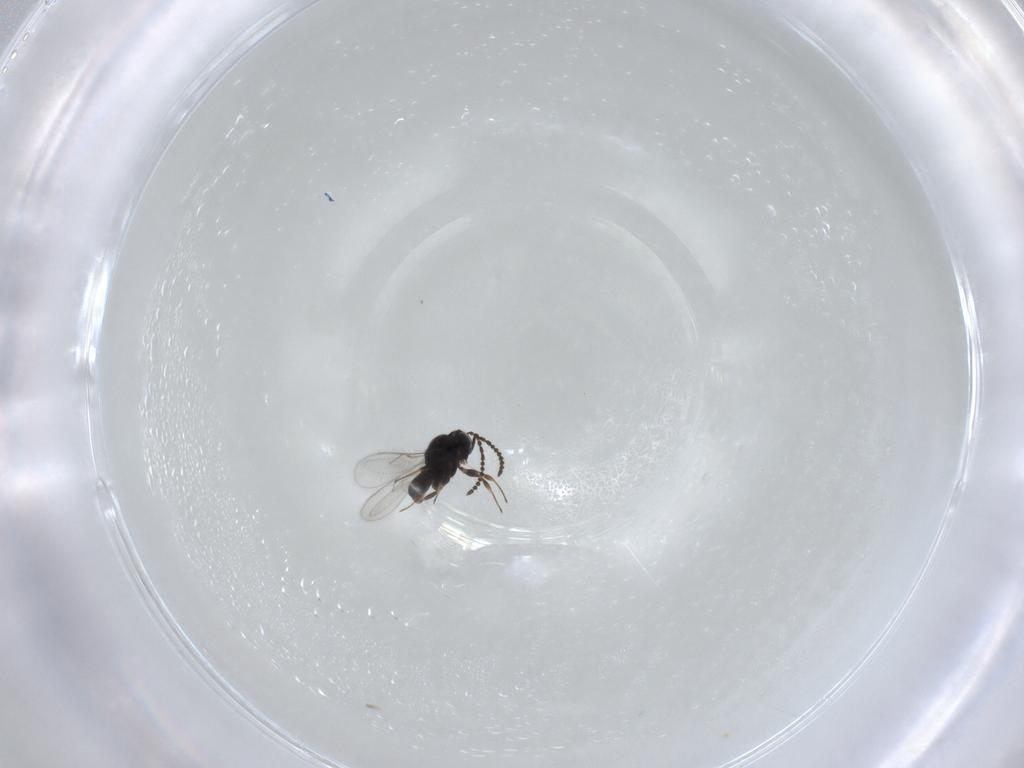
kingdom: Animalia
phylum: Arthropoda
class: Insecta
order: Hymenoptera
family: Scelionidae
